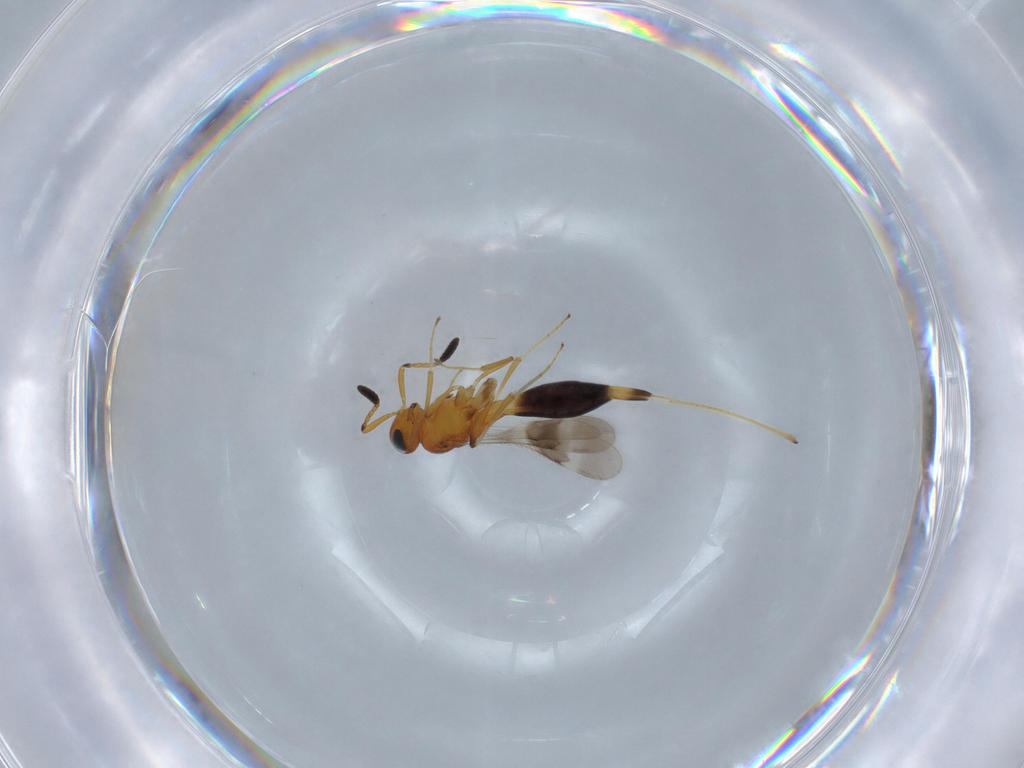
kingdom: Animalia
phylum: Arthropoda
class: Insecta
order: Hymenoptera
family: Scelionidae
